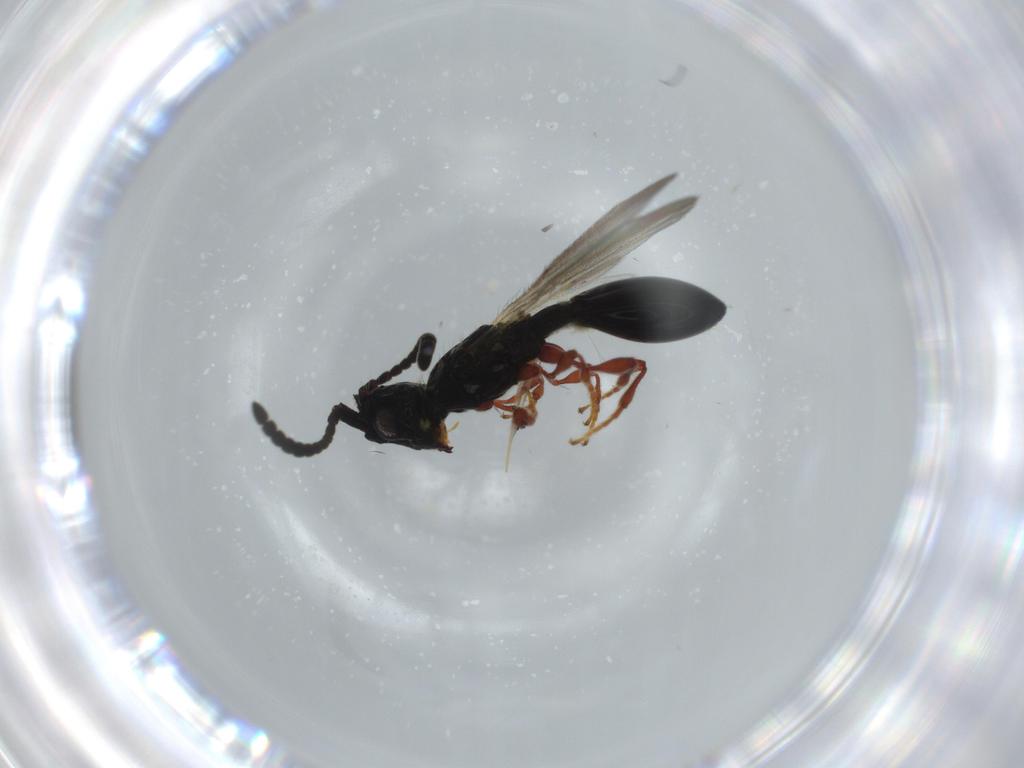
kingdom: Animalia
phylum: Arthropoda
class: Insecta
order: Hymenoptera
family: Diapriidae
